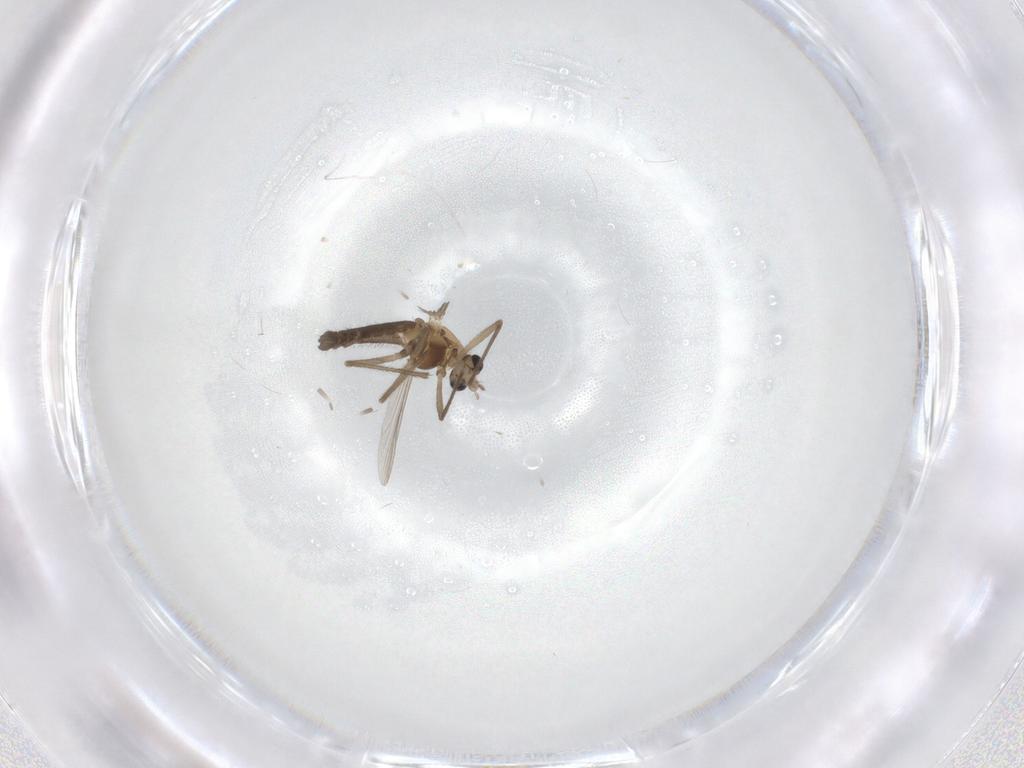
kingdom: Animalia
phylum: Arthropoda
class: Insecta
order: Diptera
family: Chironomidae
